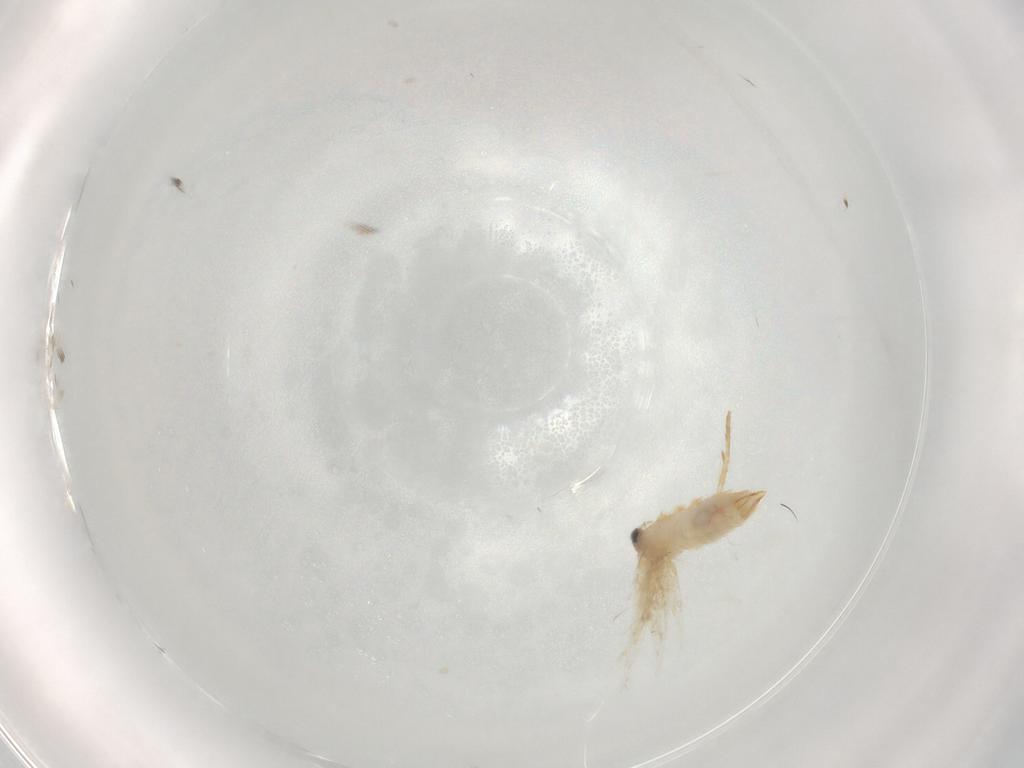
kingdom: Animalia
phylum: Arthropoda
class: Insecta
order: Lepidoptera
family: Nepticulidae
